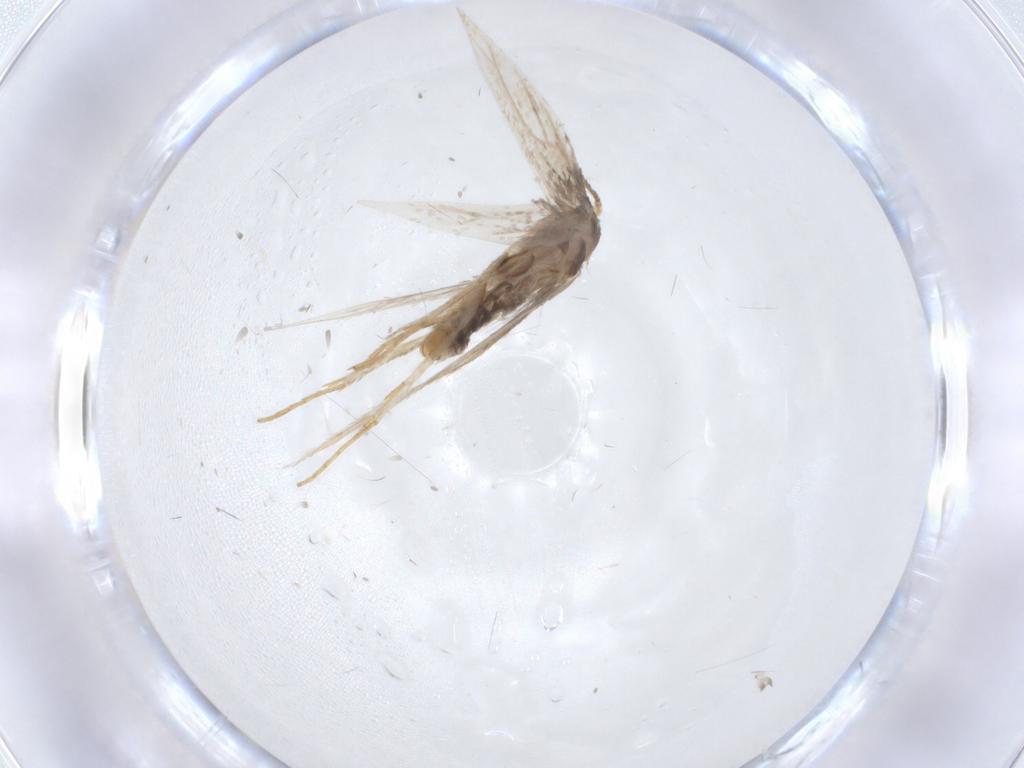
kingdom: Animalia
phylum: Arthropoda
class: Insecta
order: Lepidoptera
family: Nepticulidae
